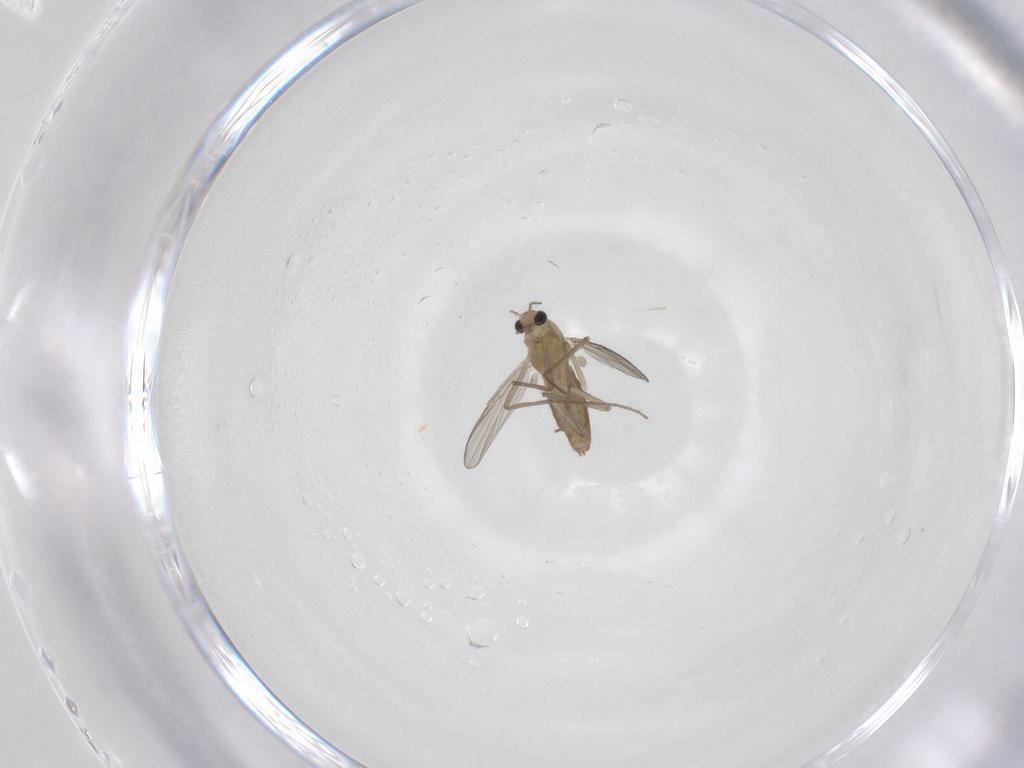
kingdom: Animalia
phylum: Arthropoda
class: Insecta
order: Diptera
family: Chironomidae
